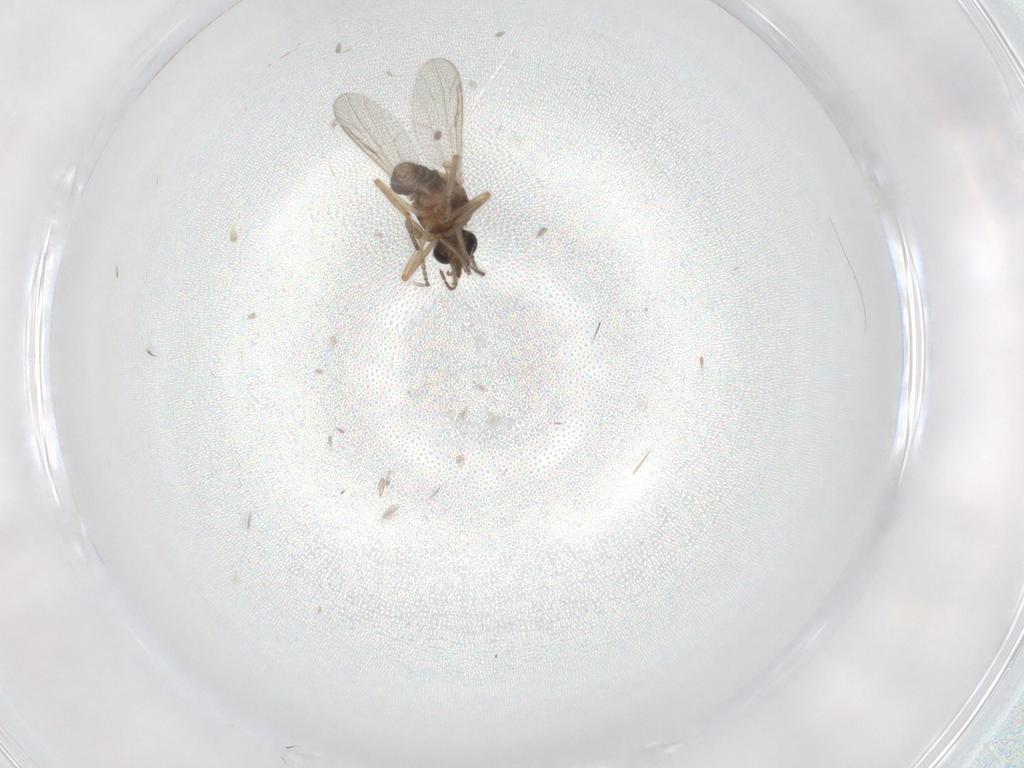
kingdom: Animalia
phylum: Arthropoda
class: Insecta
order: Diptera
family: Ceratopogonidae
